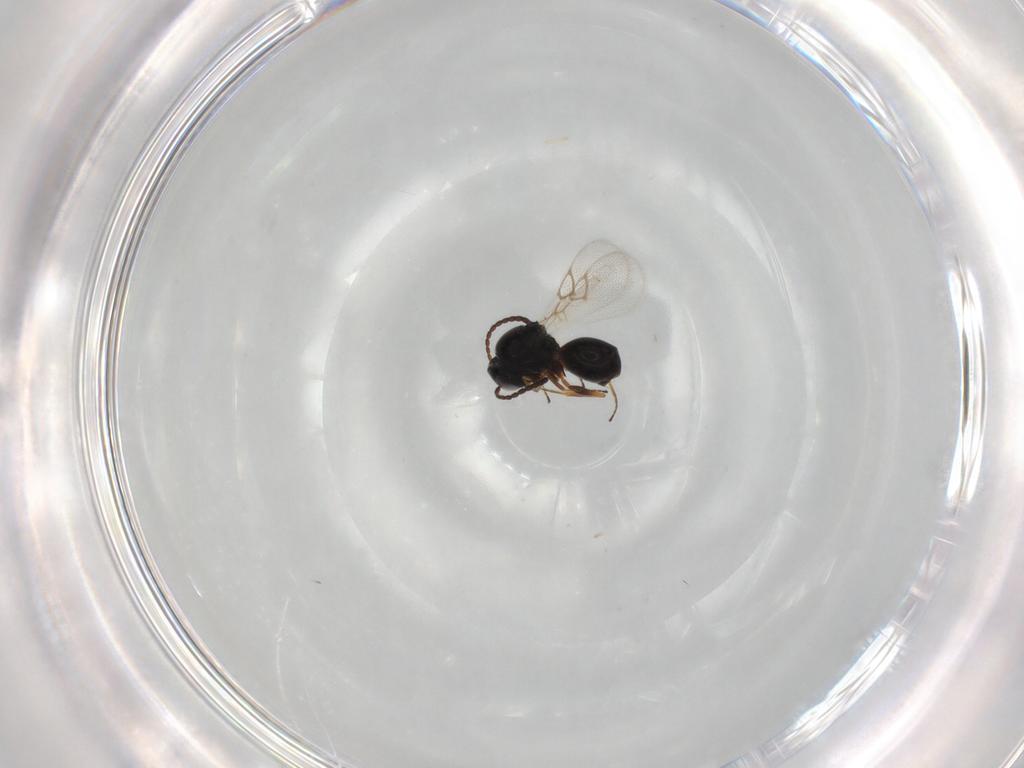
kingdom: Animalia
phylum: Arthropoda
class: Insecta
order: Hymenoptera
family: Figitidae
